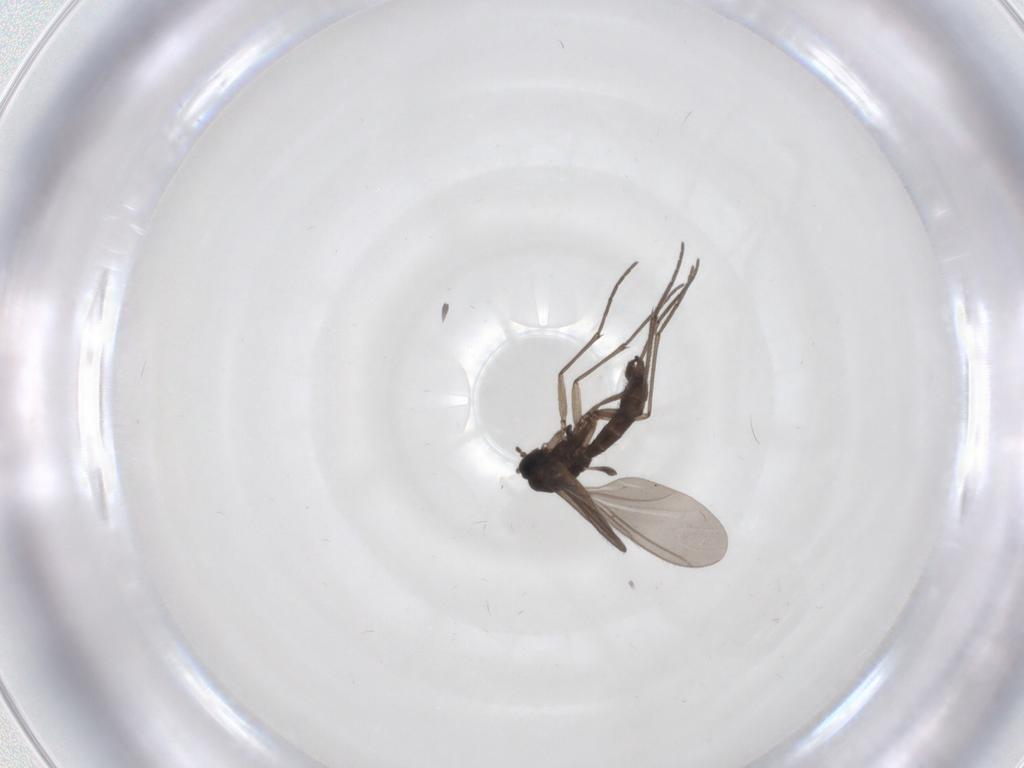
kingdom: Animalia
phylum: Arthropoda
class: Insecta
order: Diptera
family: Sciaridae
